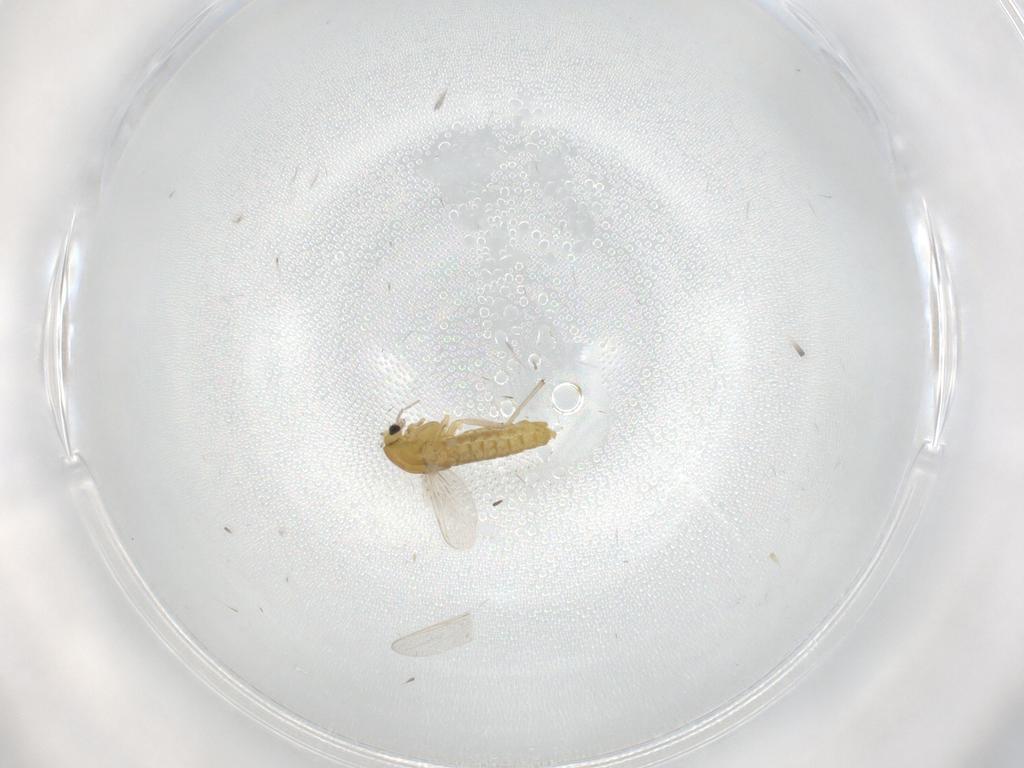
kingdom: Animalia
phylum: Arthropoda
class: Insecta
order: Diptera
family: Chironomidae
